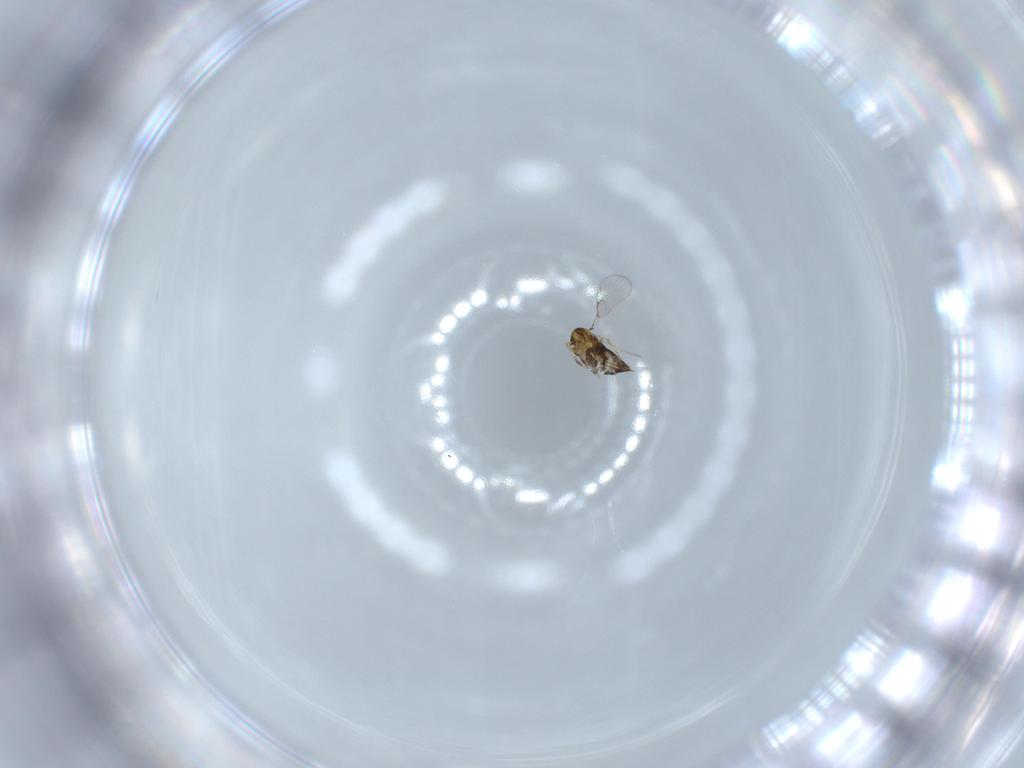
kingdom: Animalia
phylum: Arthropoda
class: Insecta
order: Hymenoptera
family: Trichogrammatidae
